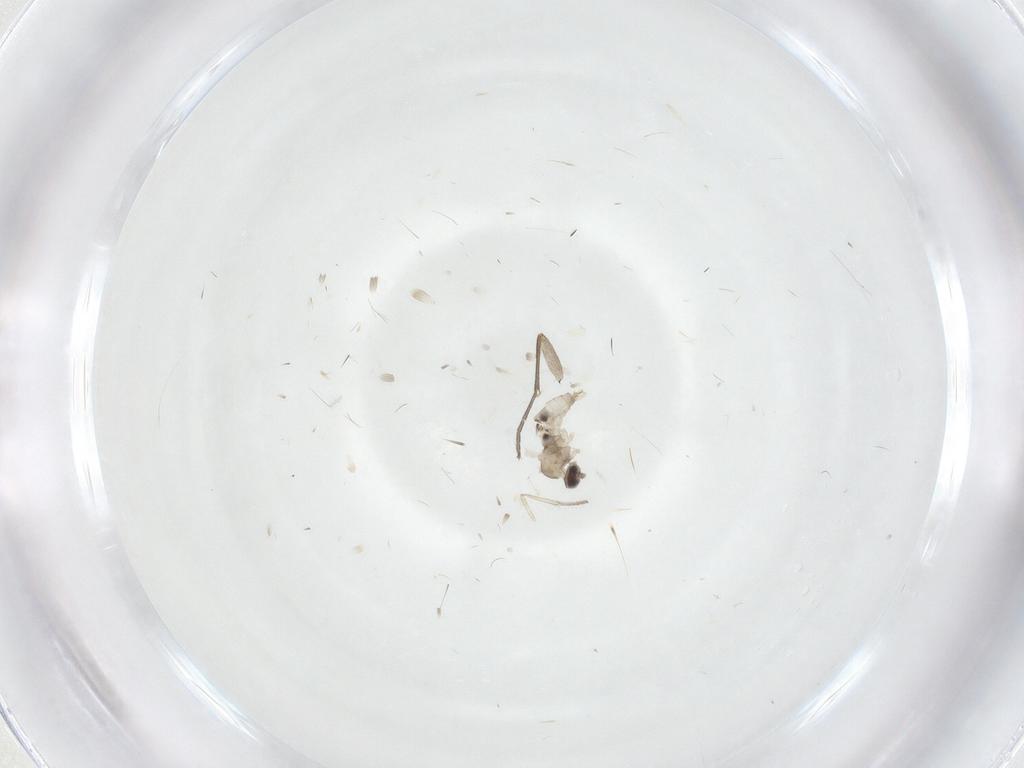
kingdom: Animalia
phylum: Arthropoda
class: Insecta
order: Diptera
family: Cecidomyiidae
